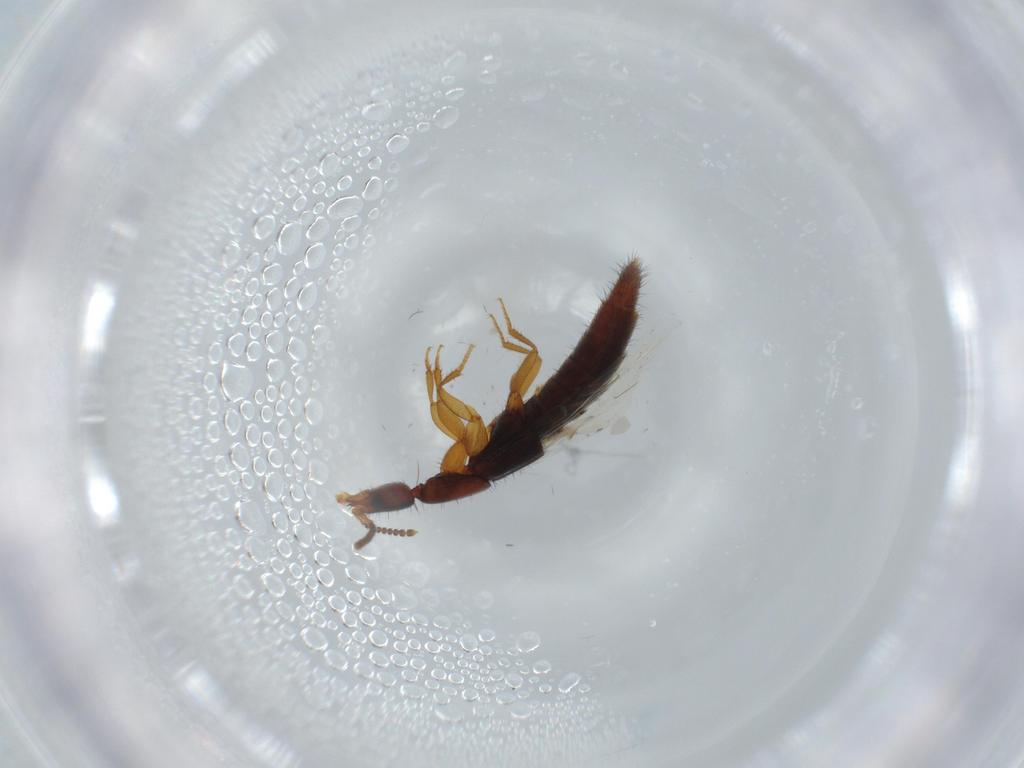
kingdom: Animalia
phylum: Arthropoda
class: Insecta
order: Coleoptera
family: Staphylinidae
